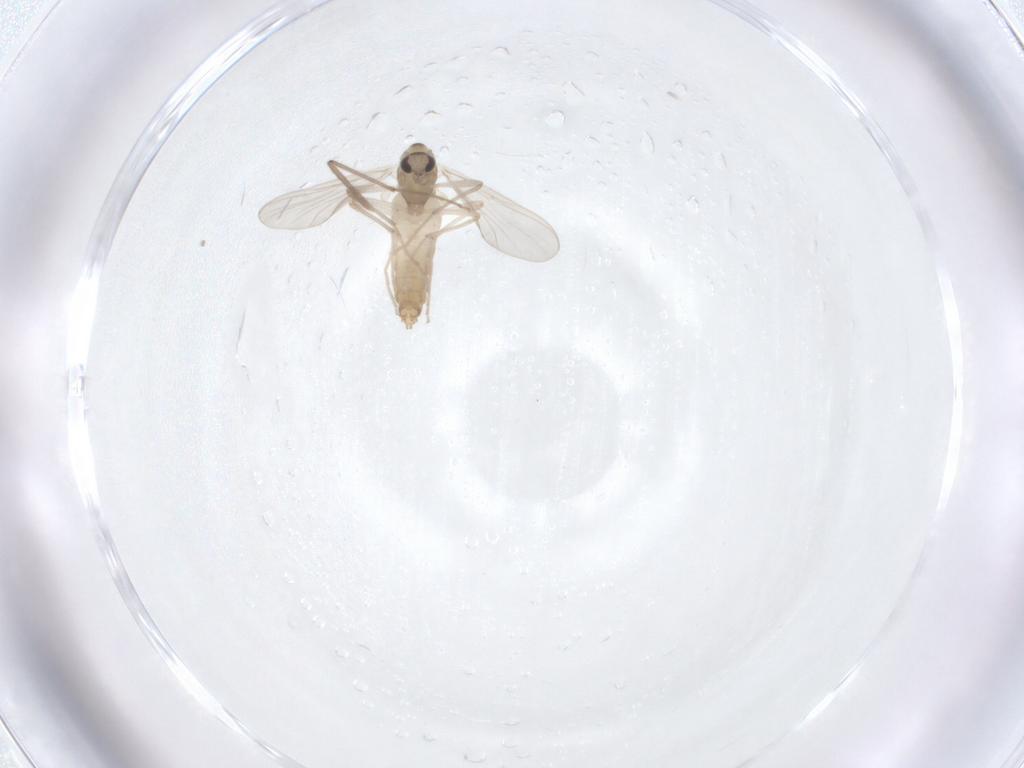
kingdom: Animalia
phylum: Arthropoda
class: Insecta
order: Diptera
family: Chironomidae
